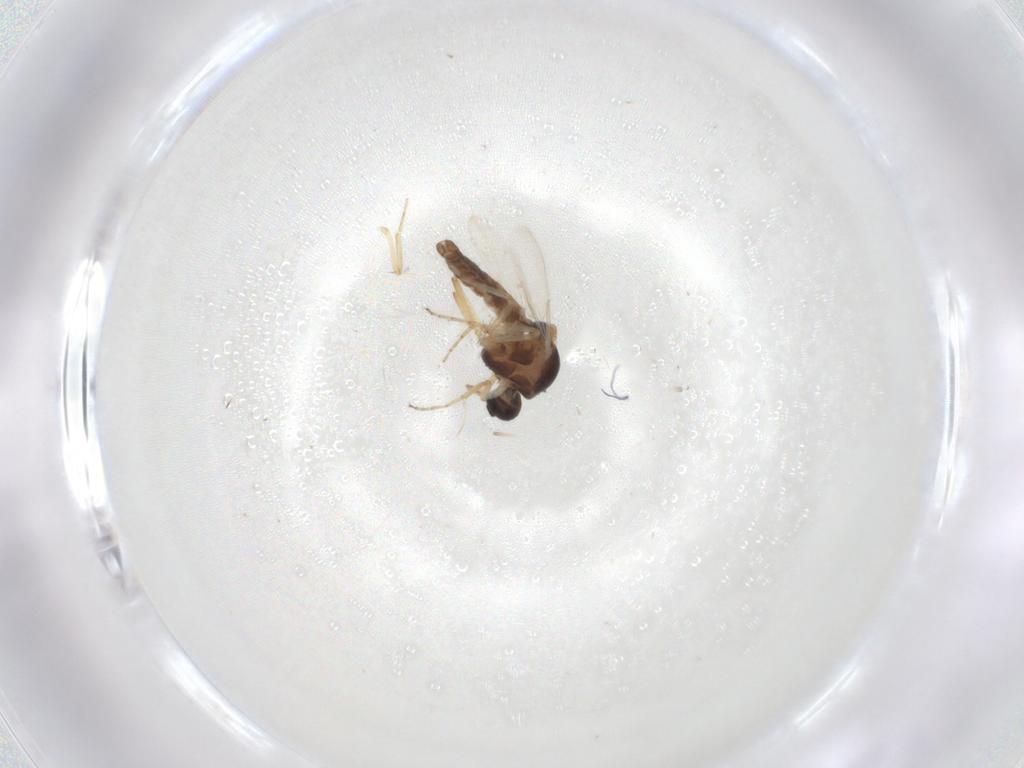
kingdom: Animalia
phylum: Arthropoda
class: Insecta
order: Diptera
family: Ceratopogonidae
